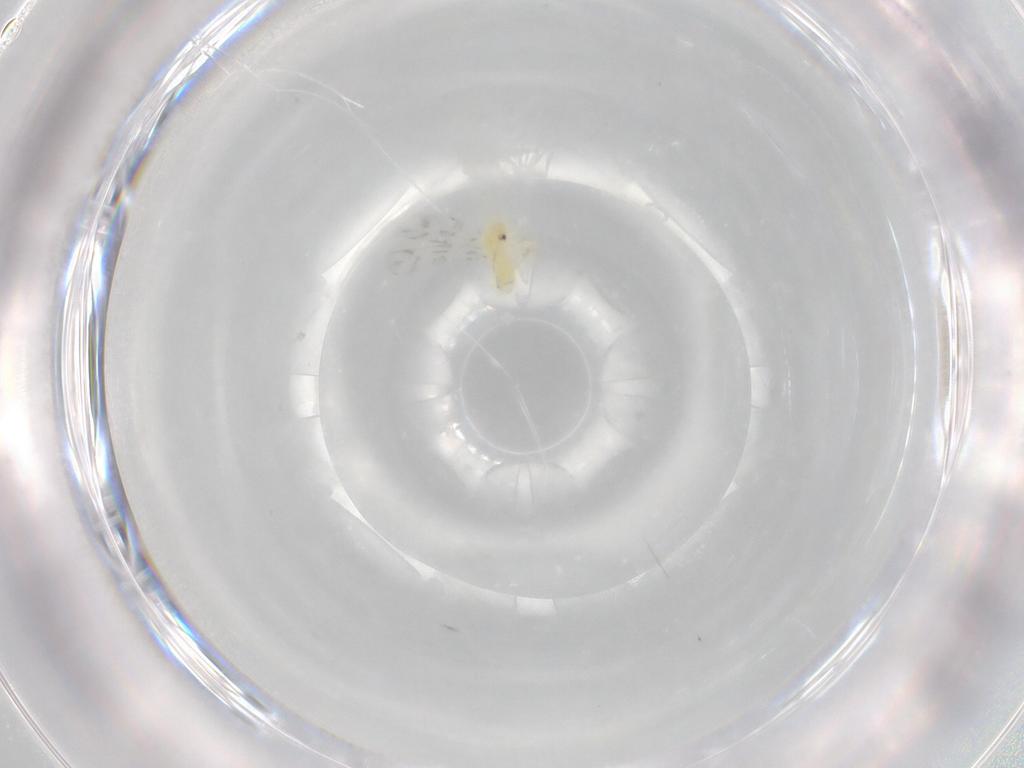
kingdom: Animalia
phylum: Arthropoda
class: Insecta
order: Hemiptera
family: Aleyrodidae
